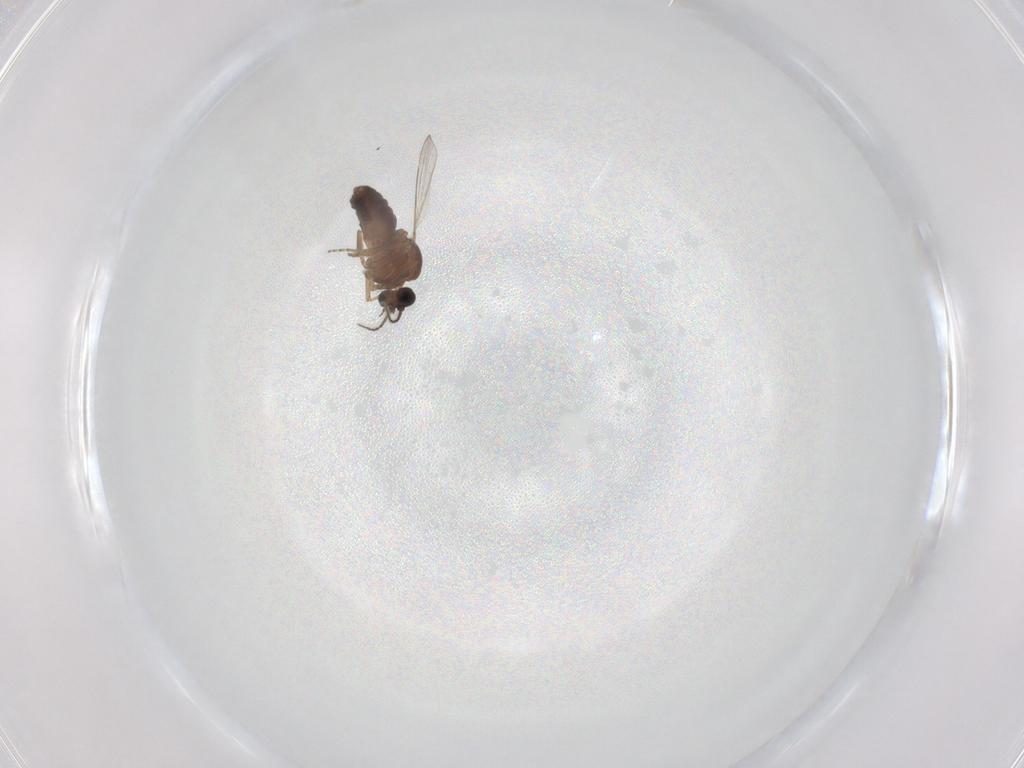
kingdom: Animalia
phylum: Arthropoda
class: Insecta
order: Diptera
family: Ceratopogonidae
